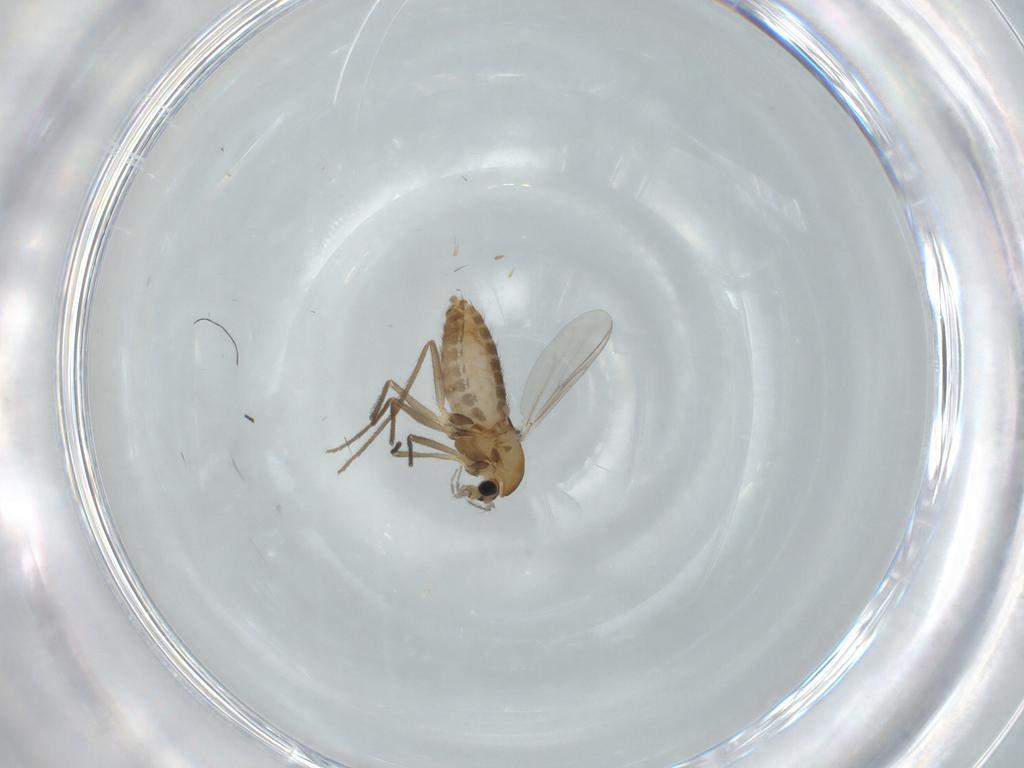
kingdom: Animalia
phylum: Arthropoda
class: Insecta
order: Diptera
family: Chironomidae
